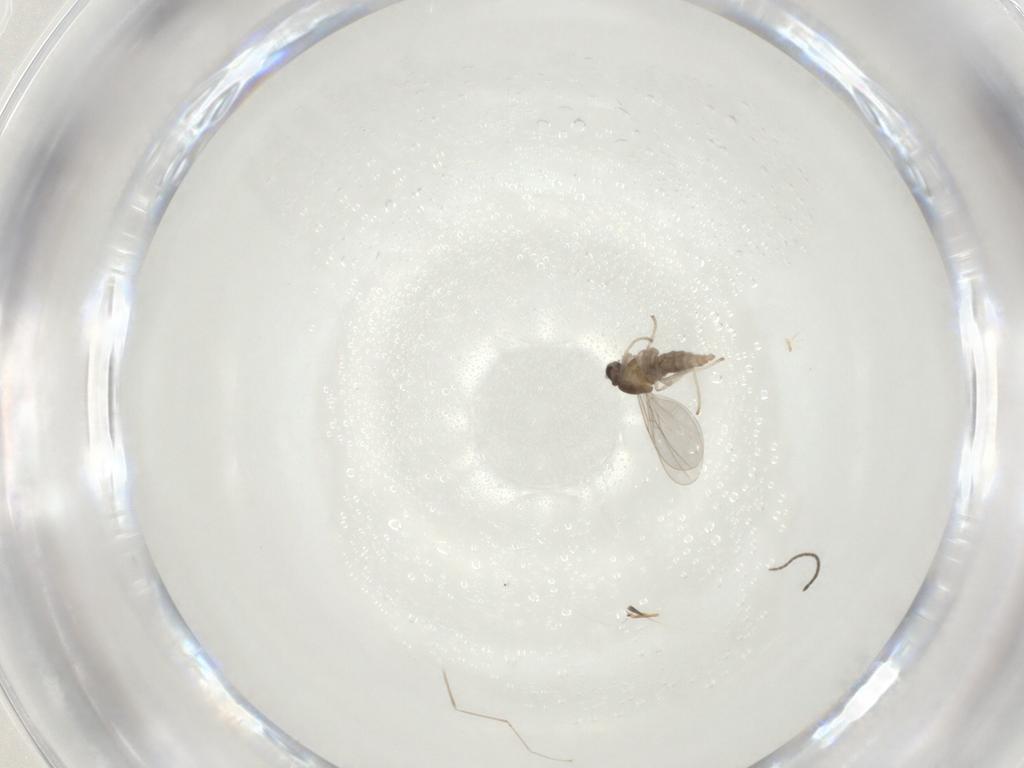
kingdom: Animalia
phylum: Arthropoda
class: Insecta
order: Diptera
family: Cecidomyiidae
